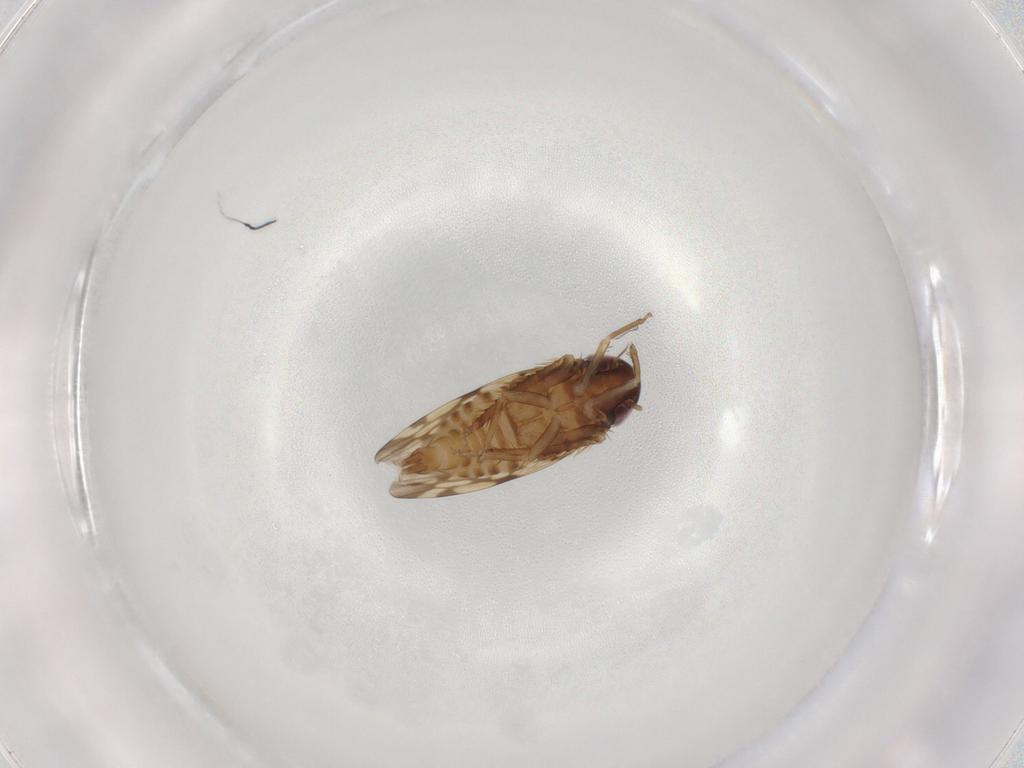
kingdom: Animalia
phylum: Arthropoda
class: Insecta
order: Hemiptera
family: Cicadellidae
